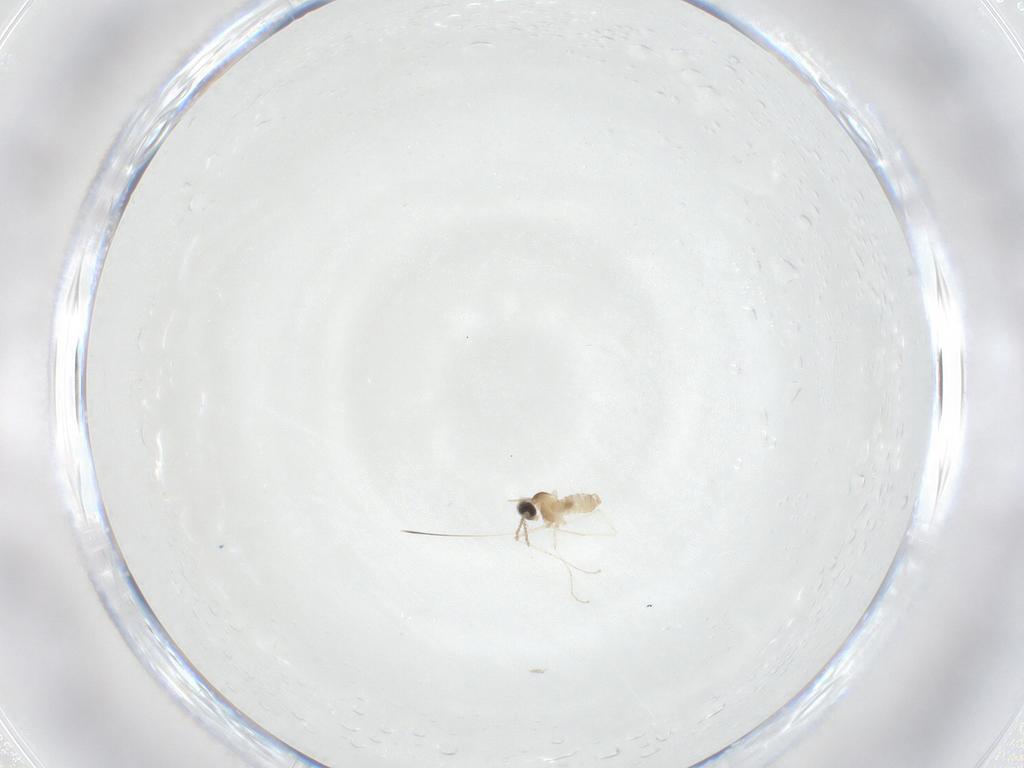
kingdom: Animalia
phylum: Arthropoda
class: Insecta
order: Diptera
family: Cecidomyiidae
